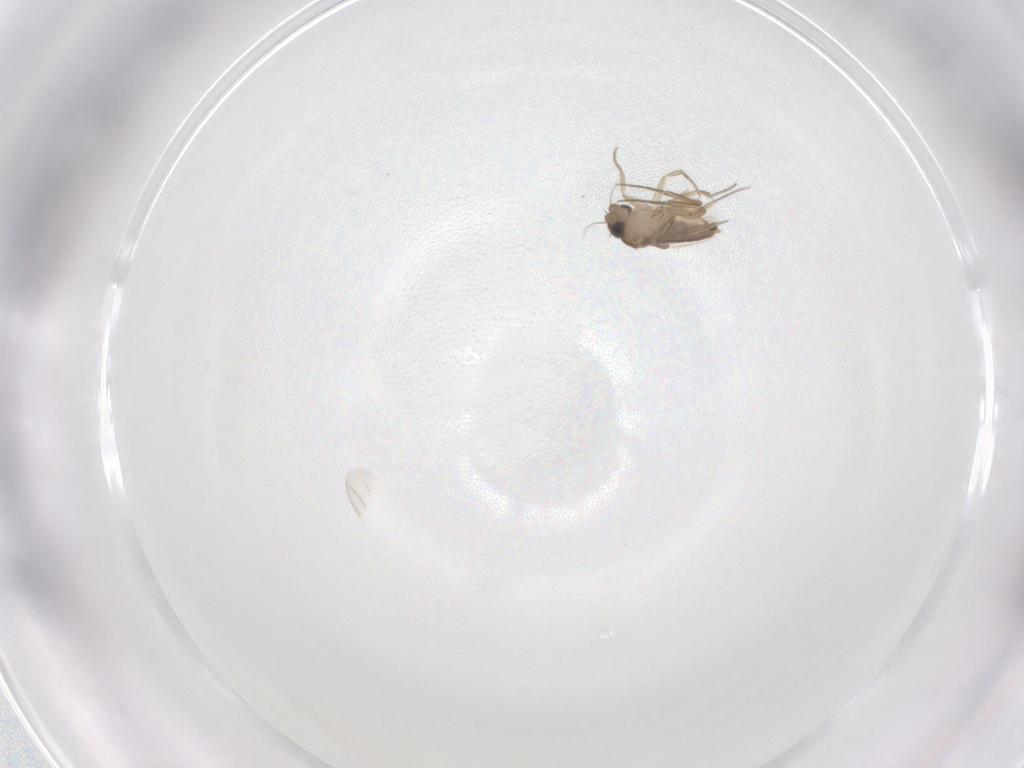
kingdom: Animalia
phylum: Arthropoda
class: Insecta
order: Diptera
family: Phoridae
